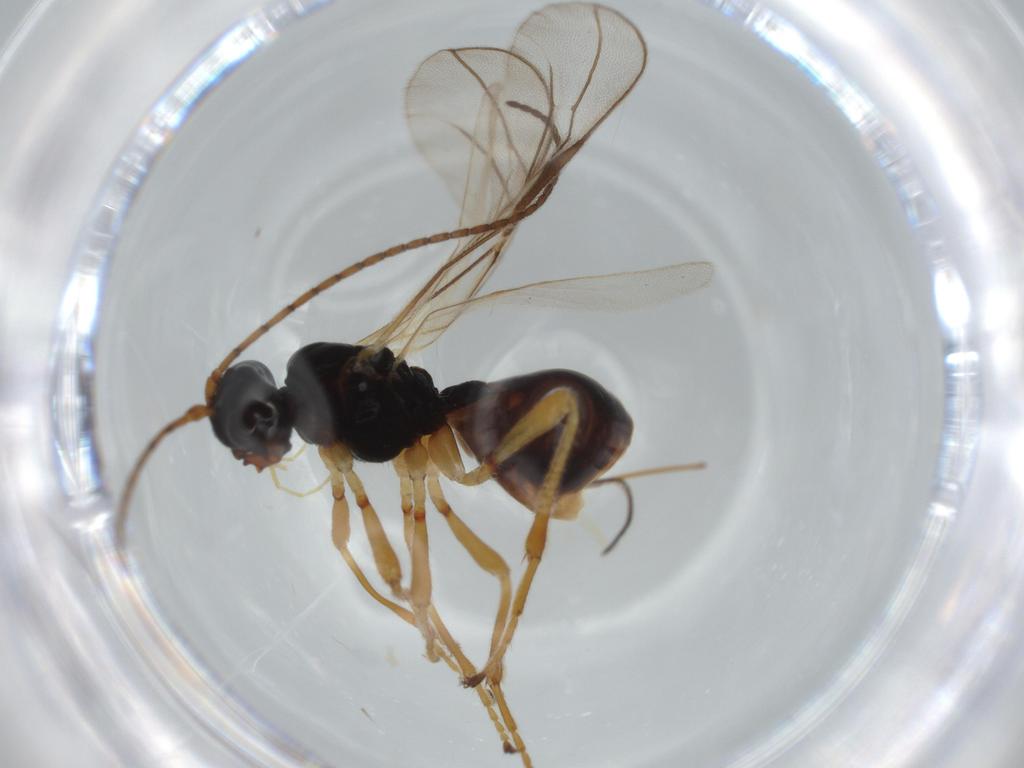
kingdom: Animalia
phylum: Arthropoda
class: Insecta
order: Hymenoptera
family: Braconidae
